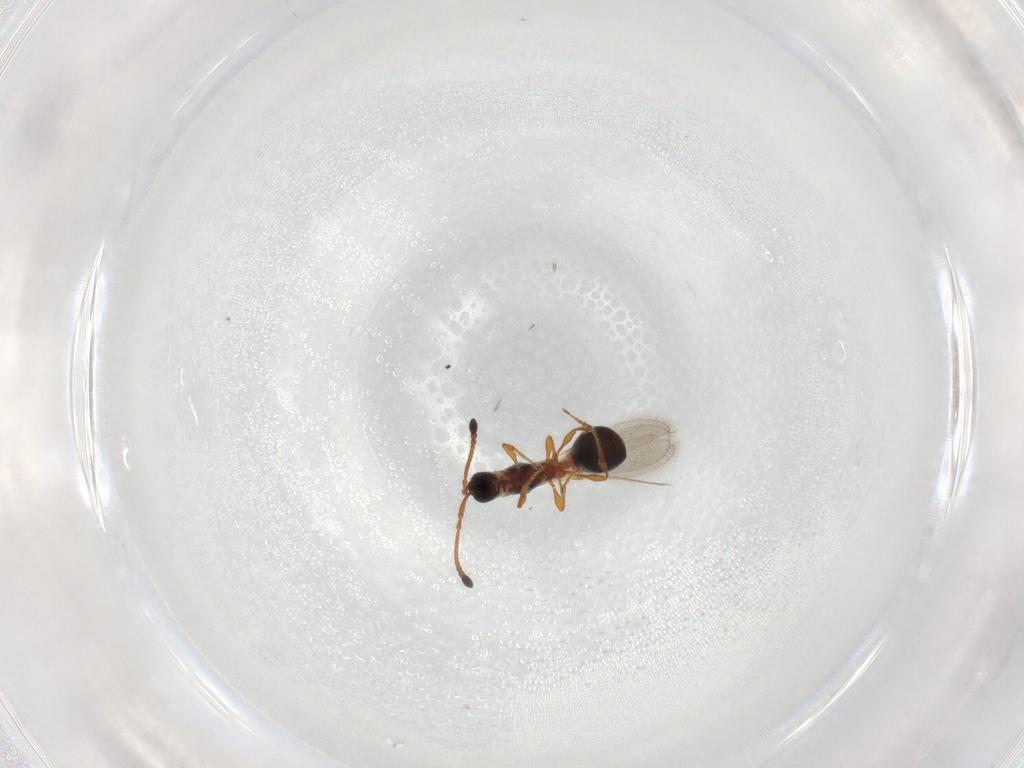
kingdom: Animalia
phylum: Arthropoda
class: Insecta
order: Hymenoptera
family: Diapriidae
